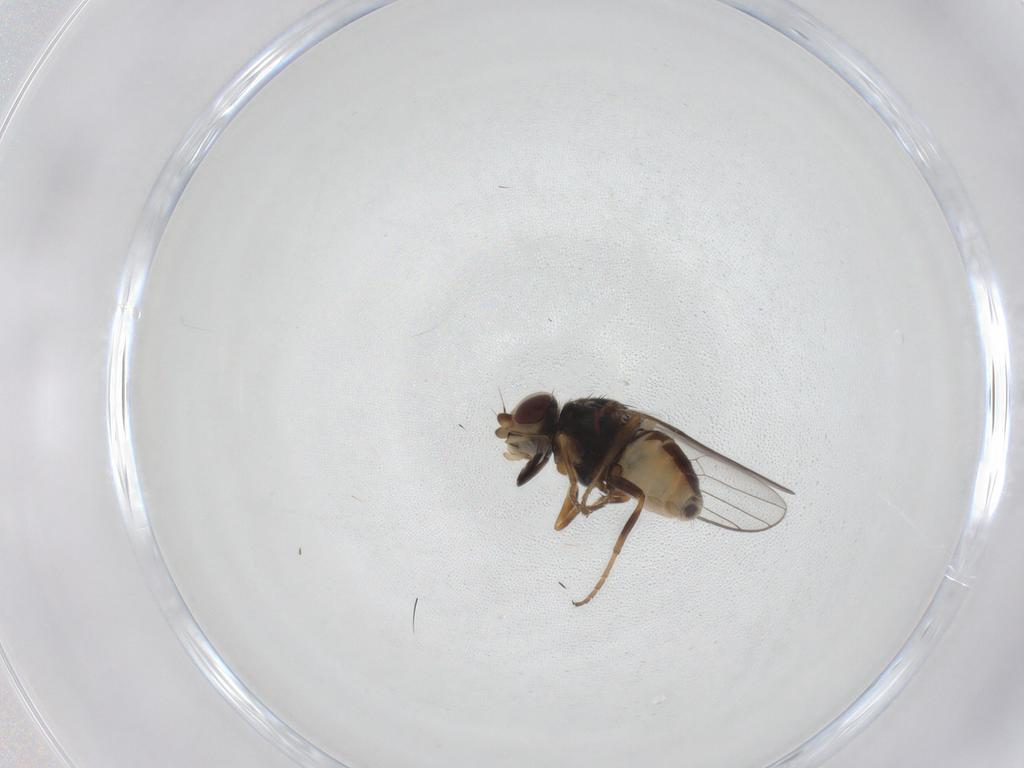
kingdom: Animalia
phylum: Arthropoda
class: Insecta
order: Diptera
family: Chloropidae
